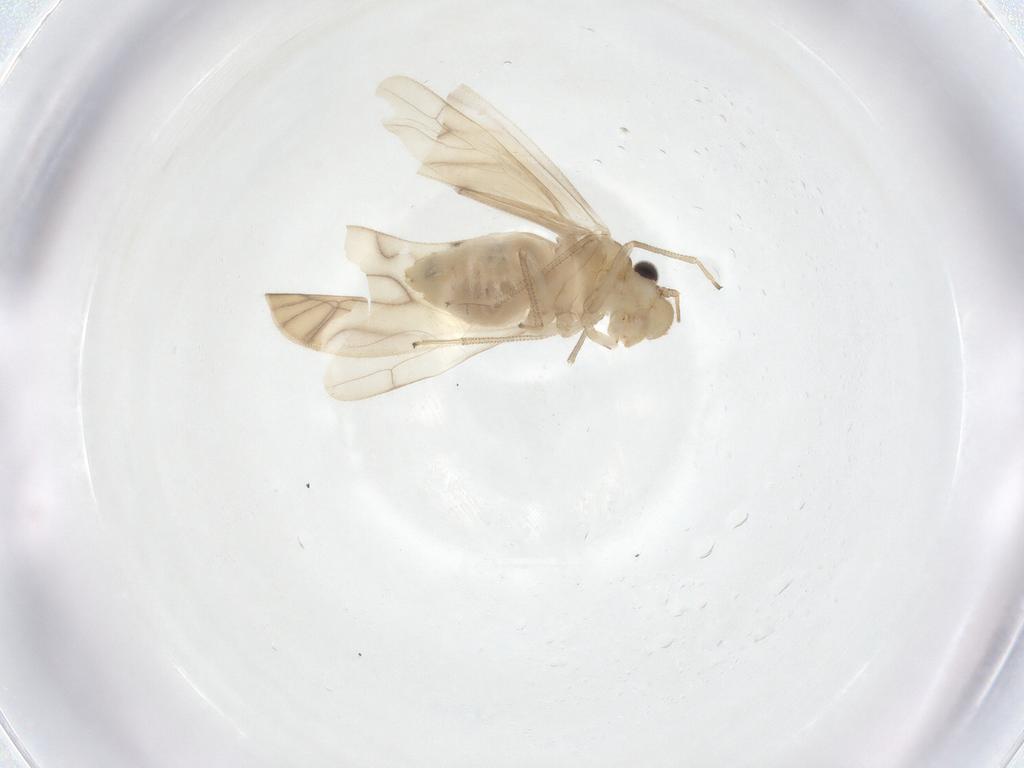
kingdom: Animalia
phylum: Arthropoda
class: Insecta
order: Psocodea
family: Caeciliusidae
